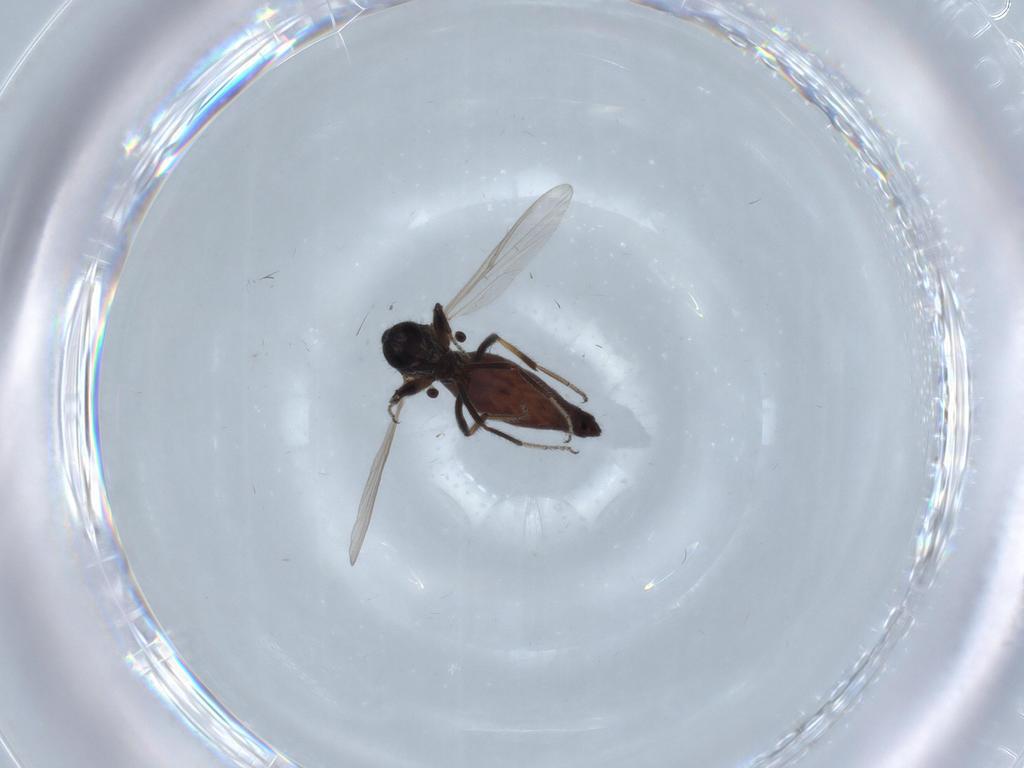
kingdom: Animalia
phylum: Arthropoda
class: Insecta
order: Diptera
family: Ceratopogonidae
